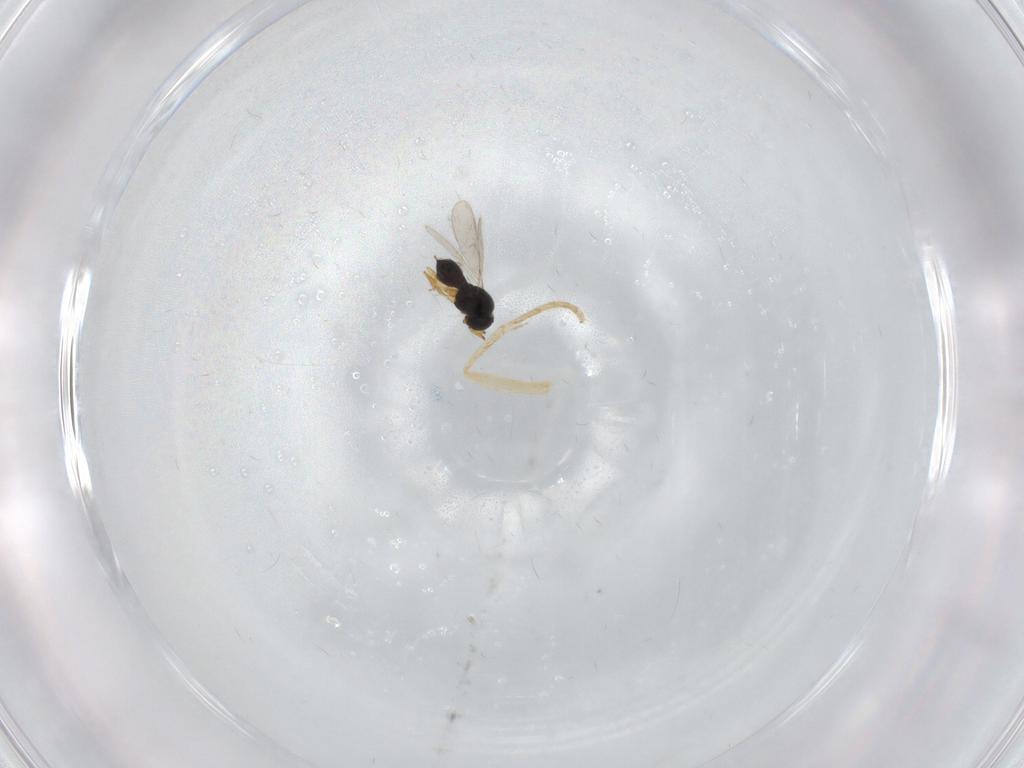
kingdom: Animalia
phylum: Arthropoda
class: Insecta
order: Hymenoptera
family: Scelionidae
